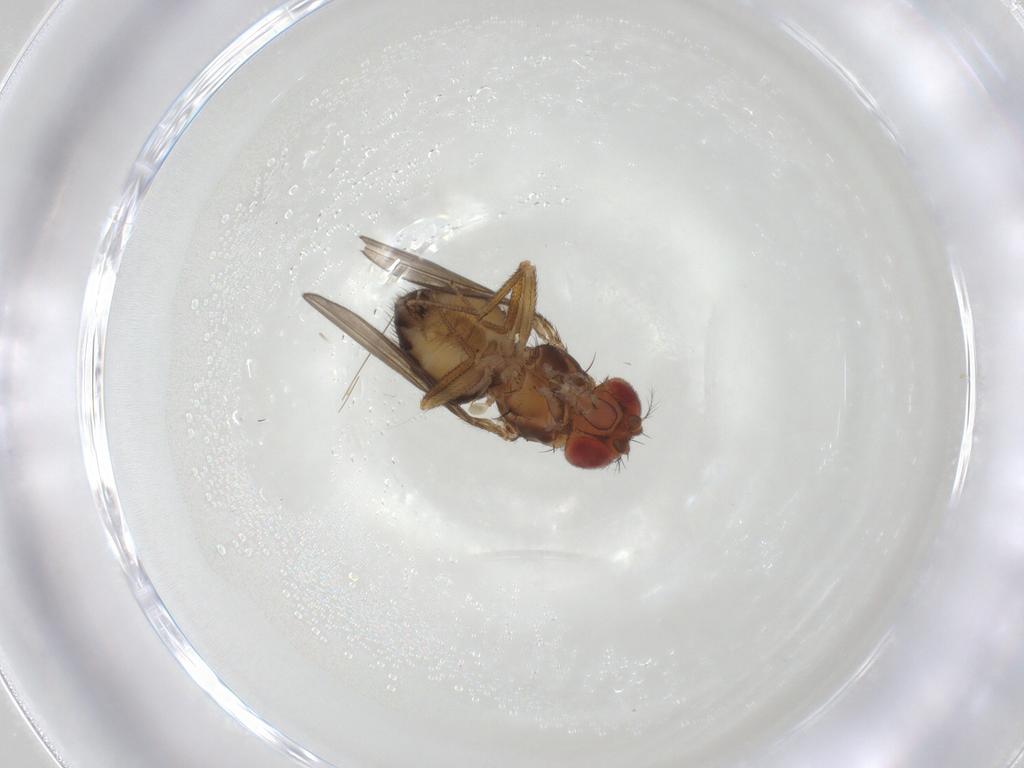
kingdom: Animalia
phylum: Arthropoda
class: Insecta
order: Diptera
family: Drosophilidae
